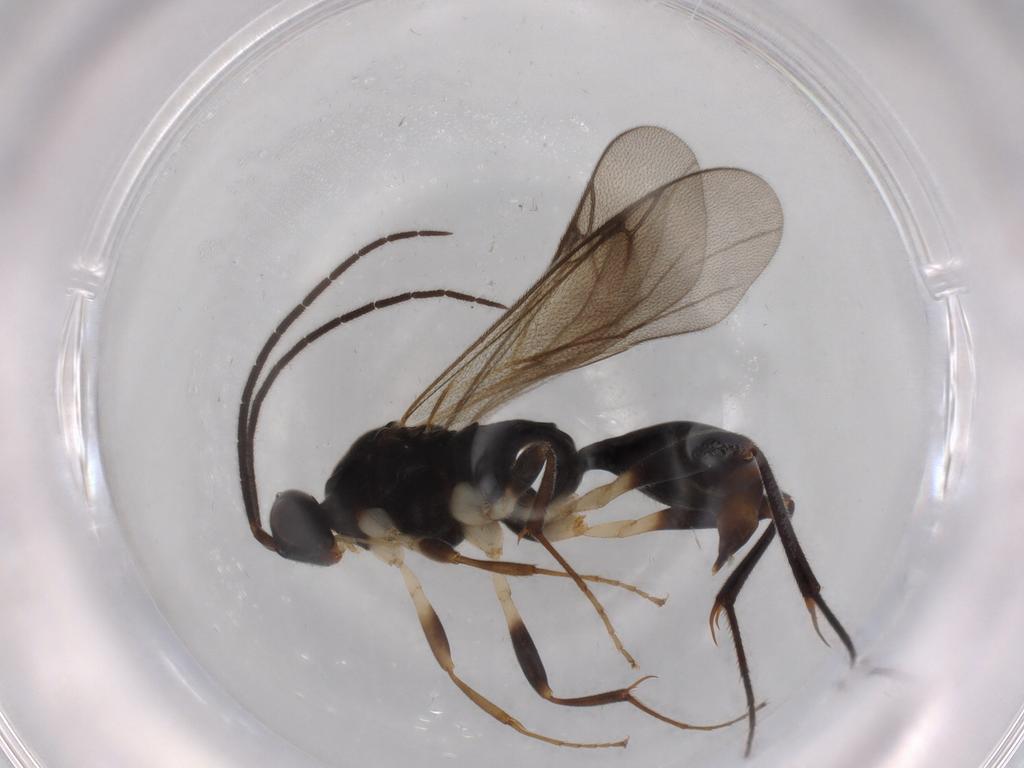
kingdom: Animalia
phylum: Arthropoda
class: Insecta
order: Hymenoptera
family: Proctotrupidae
